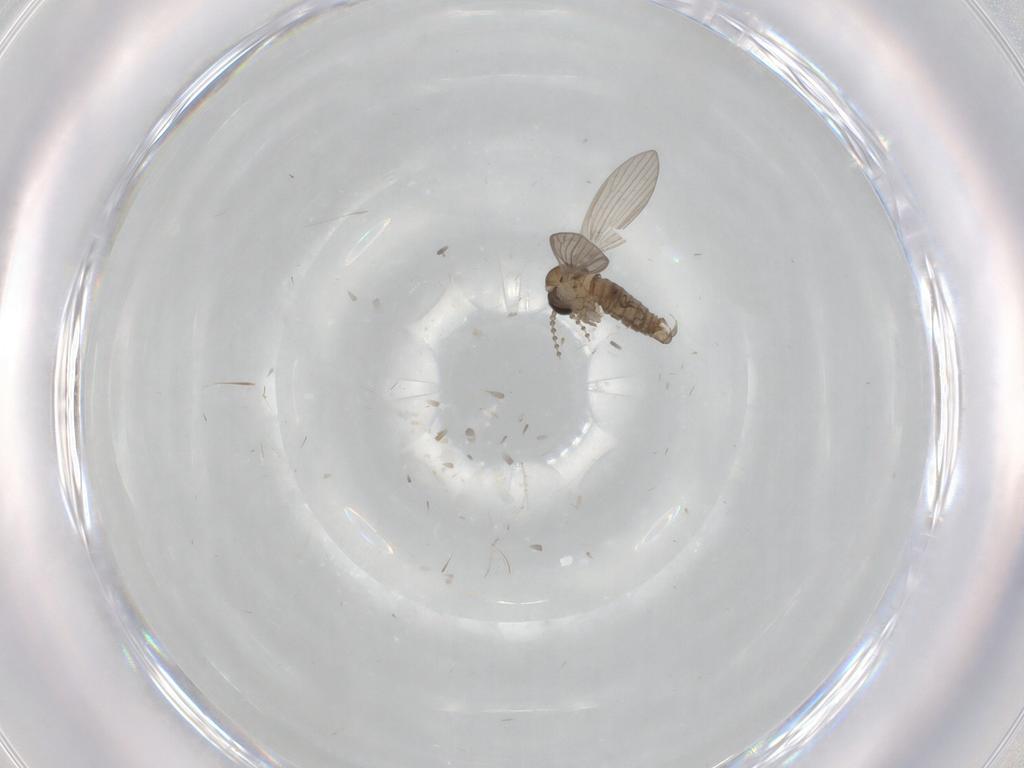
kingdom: Animalia
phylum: Arthropoda
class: Insecta
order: Diptera
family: Psychodidae
